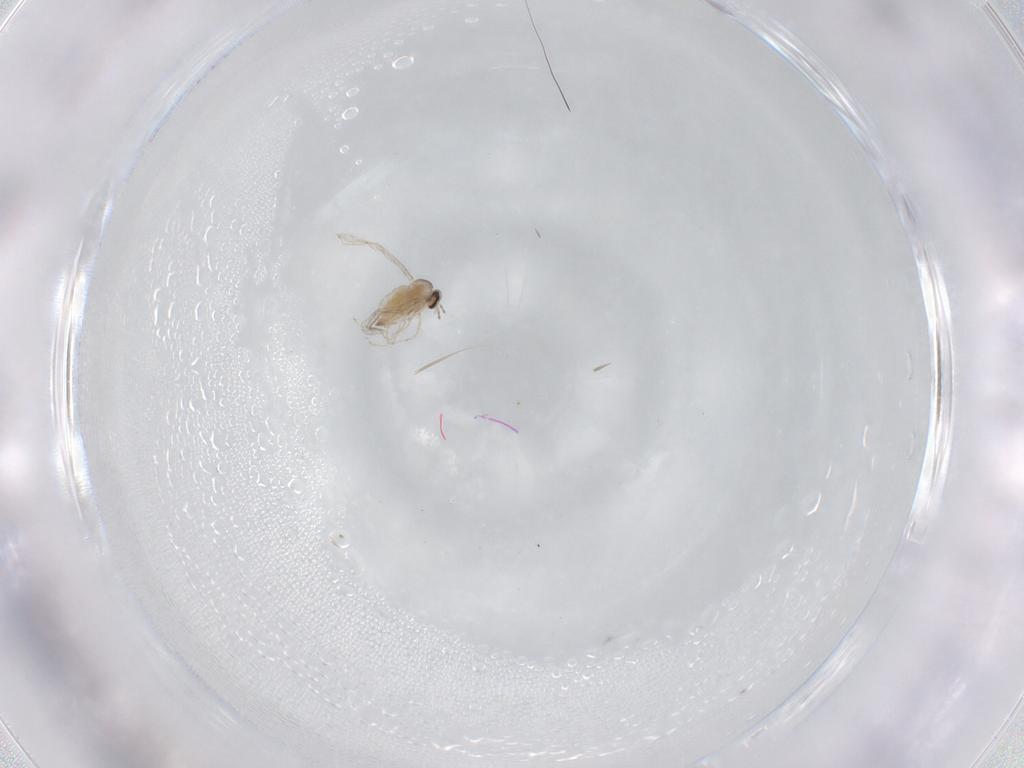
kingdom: Animalia
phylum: Arthropoda
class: Insecta
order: Diptera
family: Cecidomyiidae
